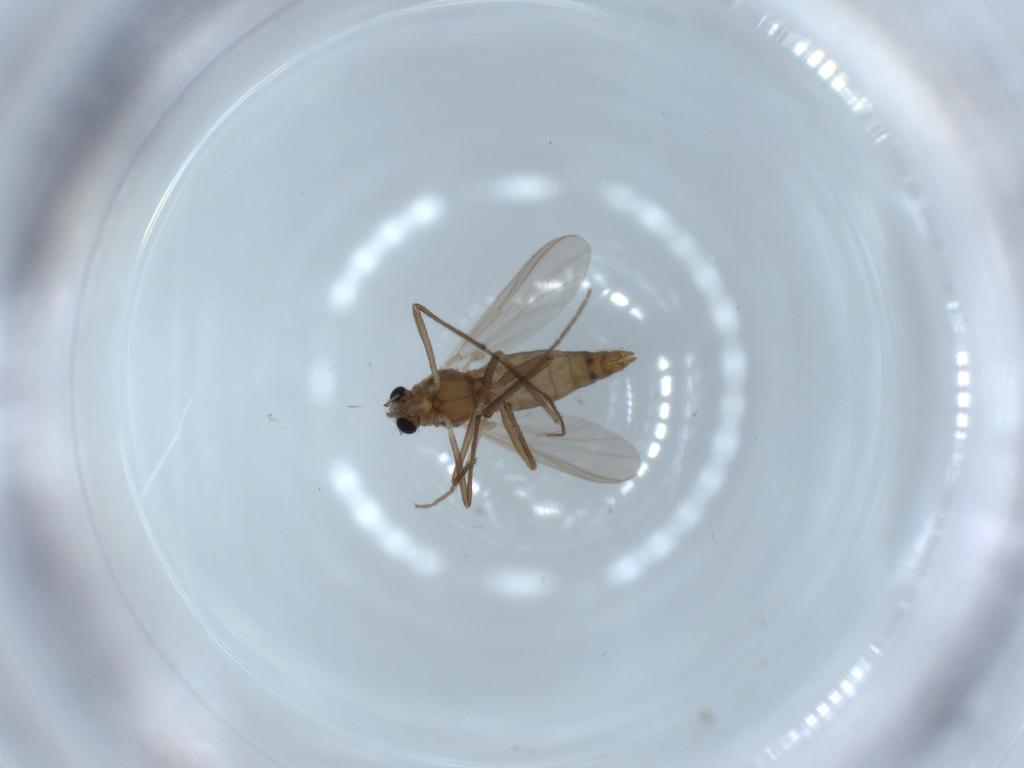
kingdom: Animalia
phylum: Arthropoda
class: Insecta
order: Diptera
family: Chironomidae
